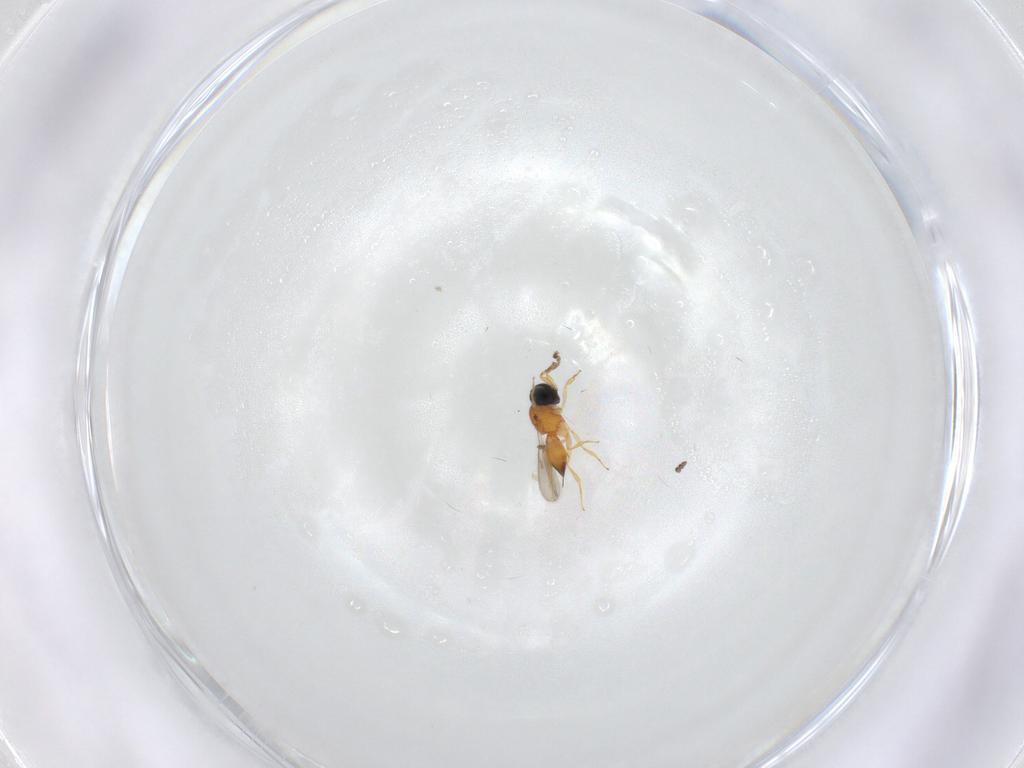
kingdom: Animalia
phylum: Arthropoda
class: Insecta
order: Hymenoptera
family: Scelionidae
